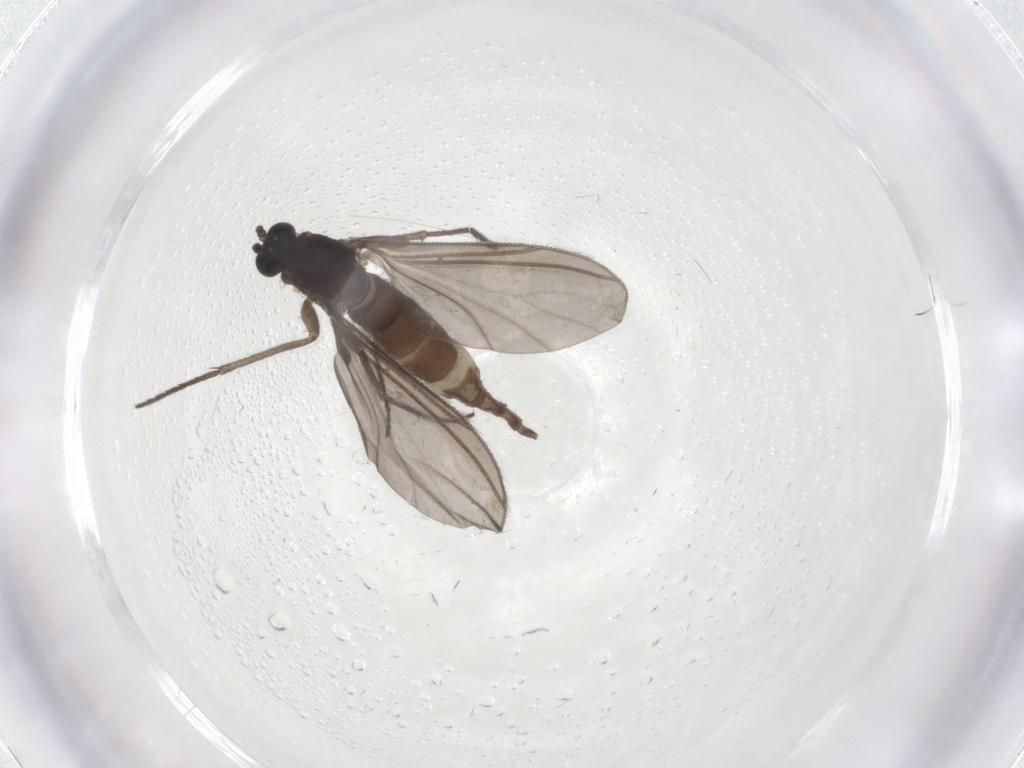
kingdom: Animalia
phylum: Arthropoda
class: Insecta
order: Diptera
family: Sciaridae
